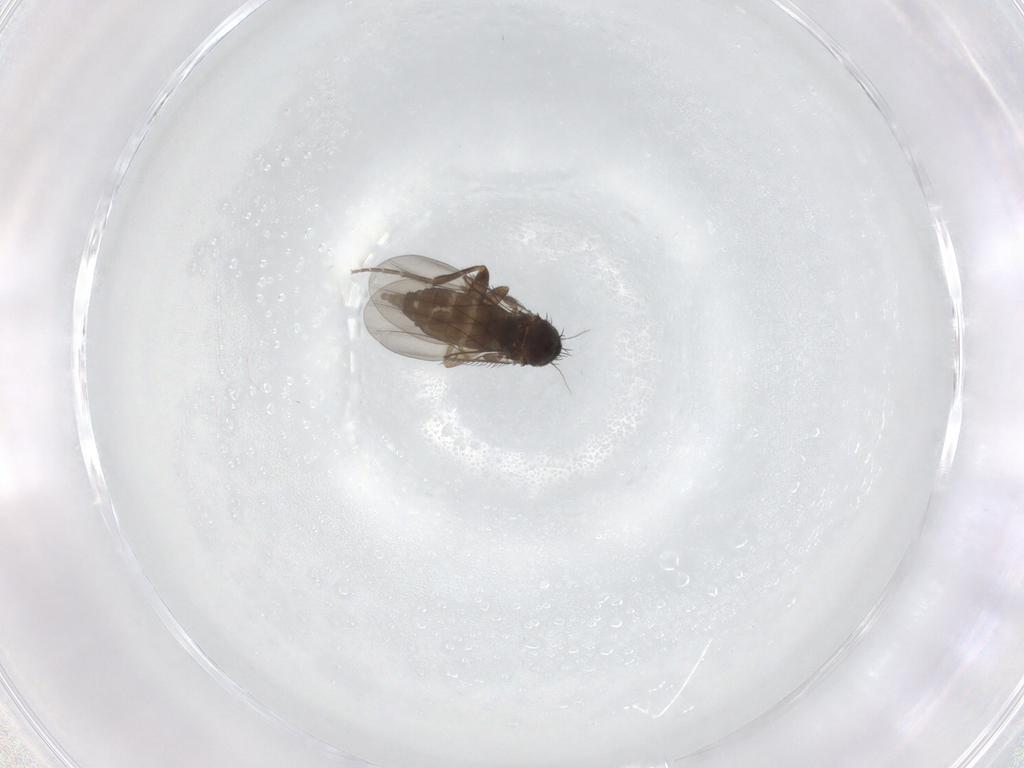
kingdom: Animalia
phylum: Arthropoda
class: Insecta
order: Diptera
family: Phoridae
